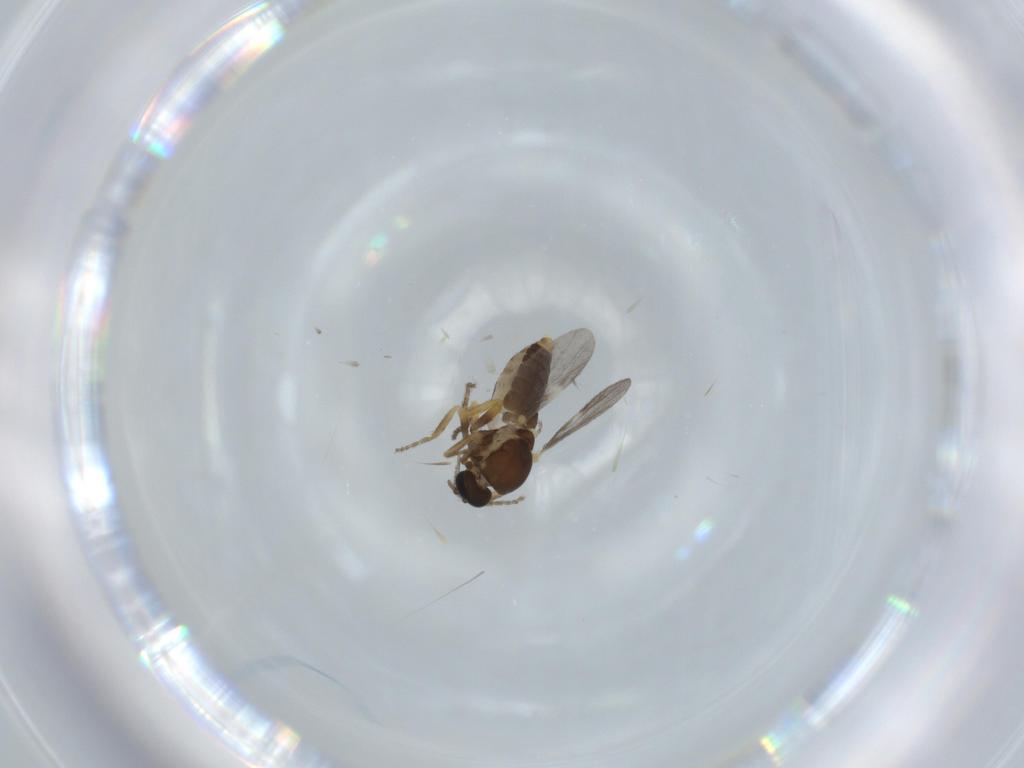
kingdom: Animalia
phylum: Arthropoda
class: Insecta
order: Diptera
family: Ceratopogonidae
